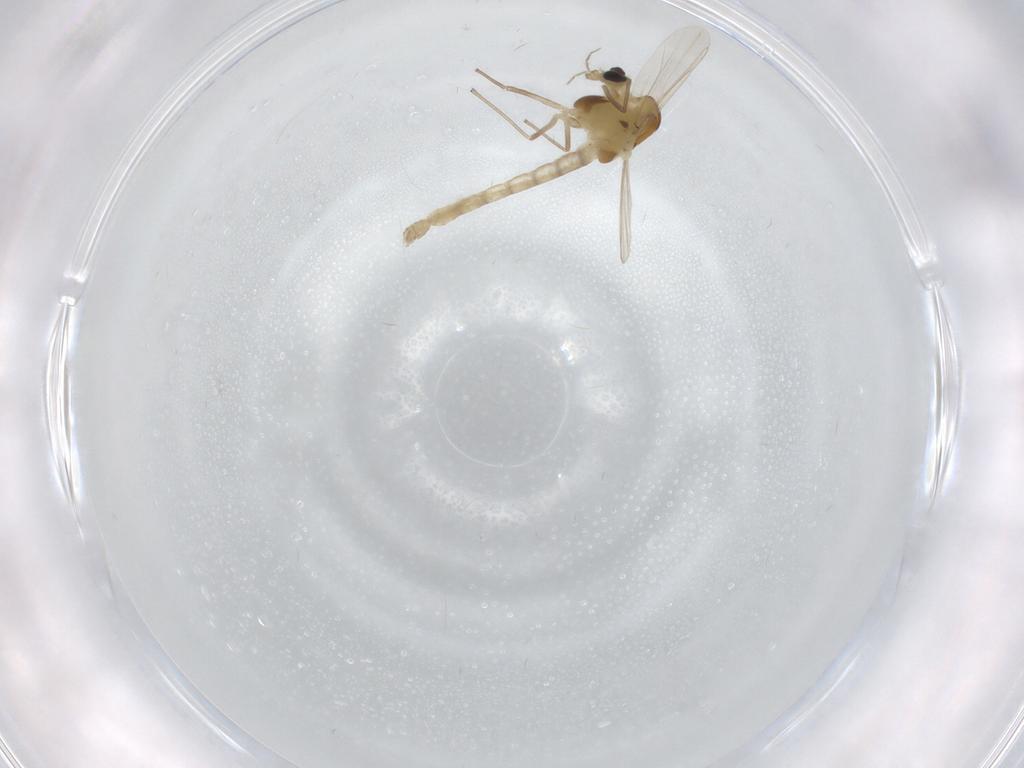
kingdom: Animalia
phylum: Arthropoda
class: Insecta
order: Diptera
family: Chironomidae
